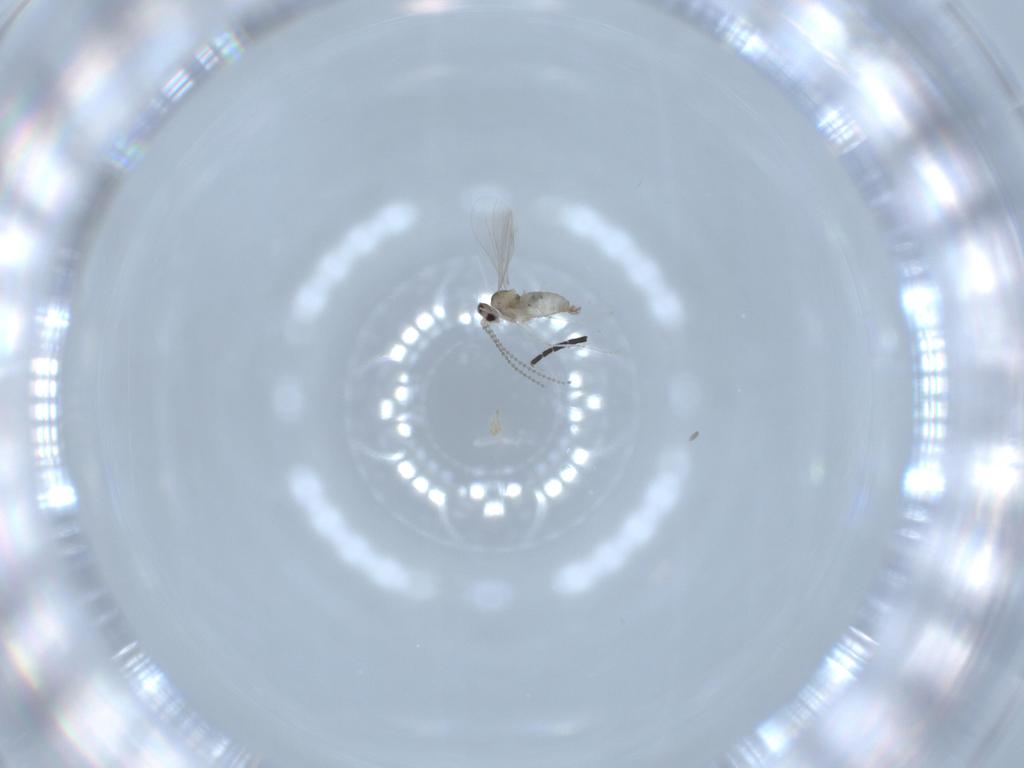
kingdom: Animalia
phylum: Arthropoda
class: Insecta
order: Diptera
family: Cecidomyiidae
